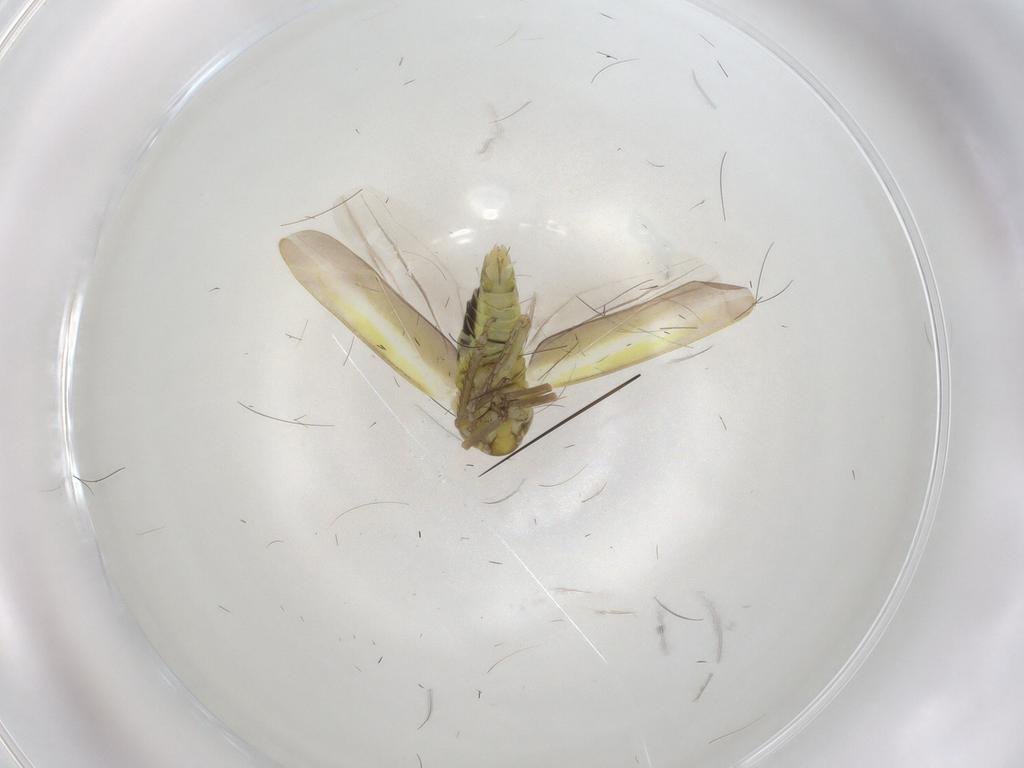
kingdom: Animalia
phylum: Arthropoda
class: Insecta
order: Hemiptera
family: Cicadellidae
